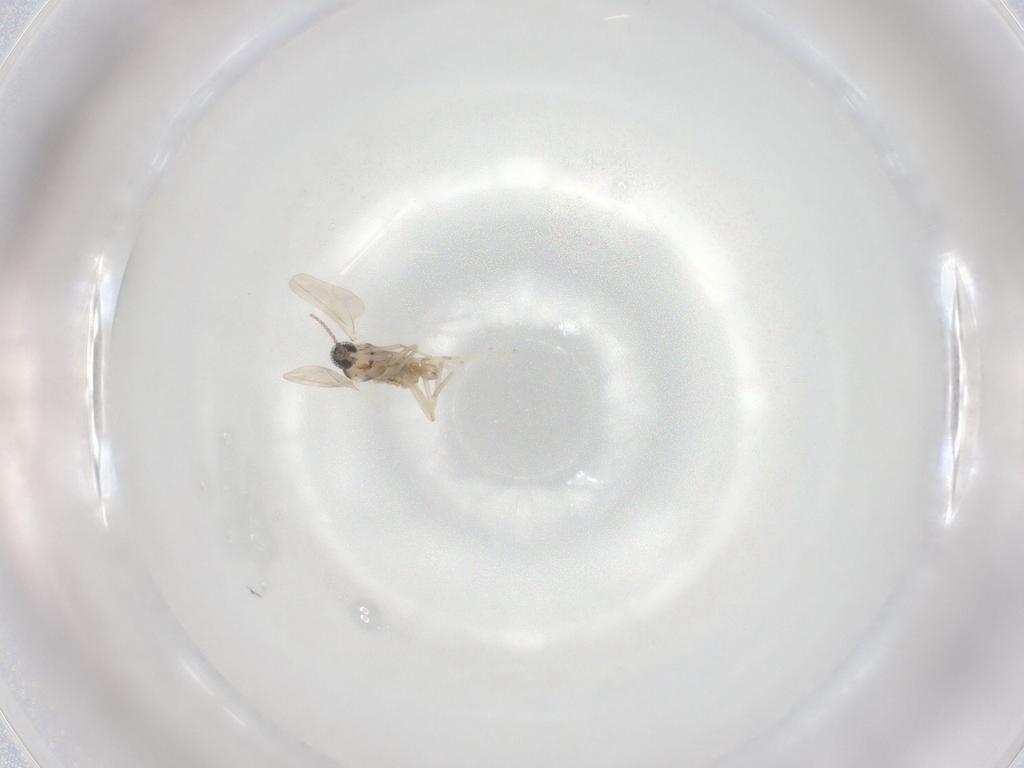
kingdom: Animalia
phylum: Arthropoda
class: Insecta
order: Diptera
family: Cecidomyiidae
